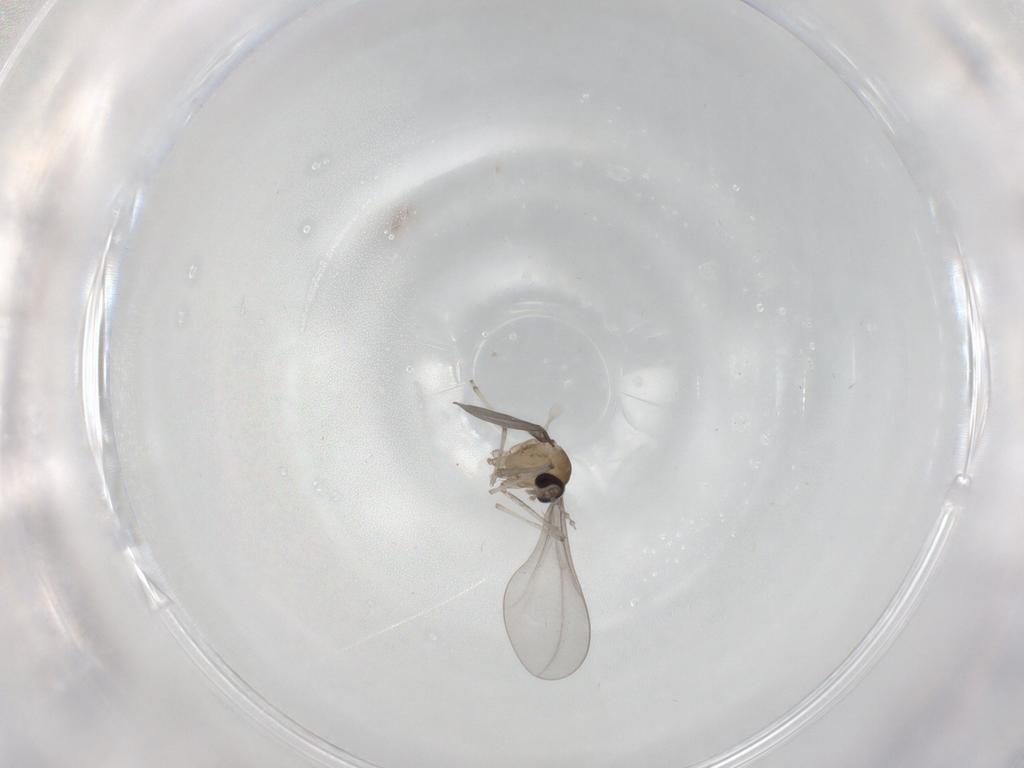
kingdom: Animalia
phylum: Arthropoda
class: Insecta
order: Diptera
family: Cecidomyiidae
